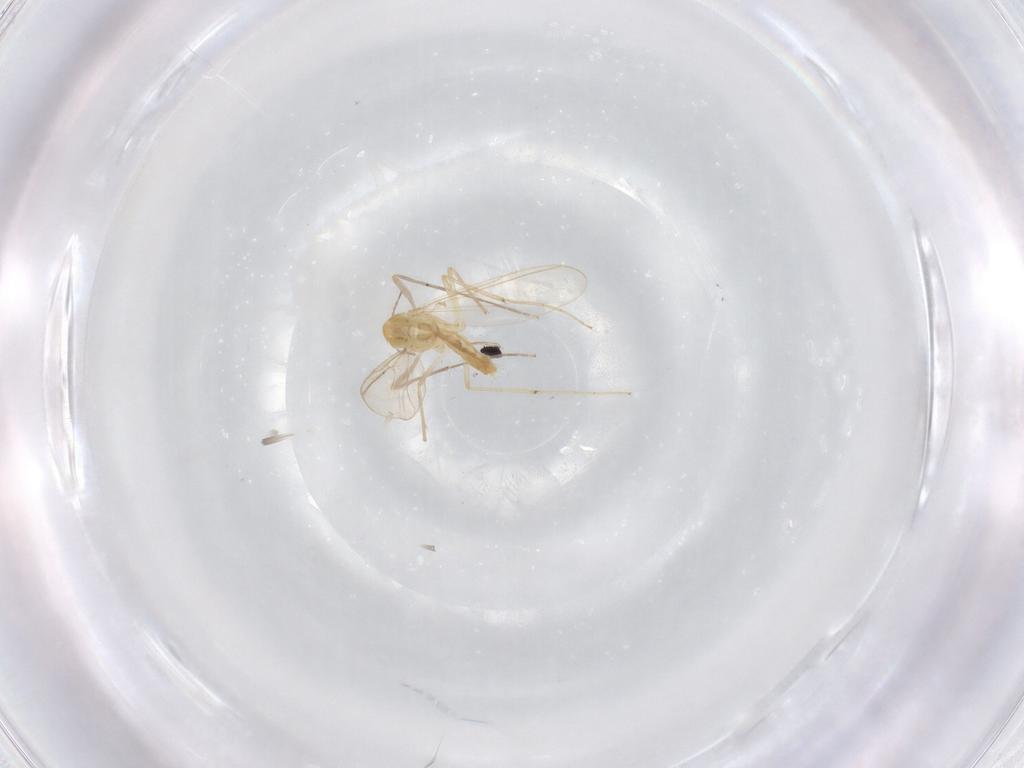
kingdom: Animalia
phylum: Arthropoda
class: Insecta
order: Diptera
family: Chironomidae
